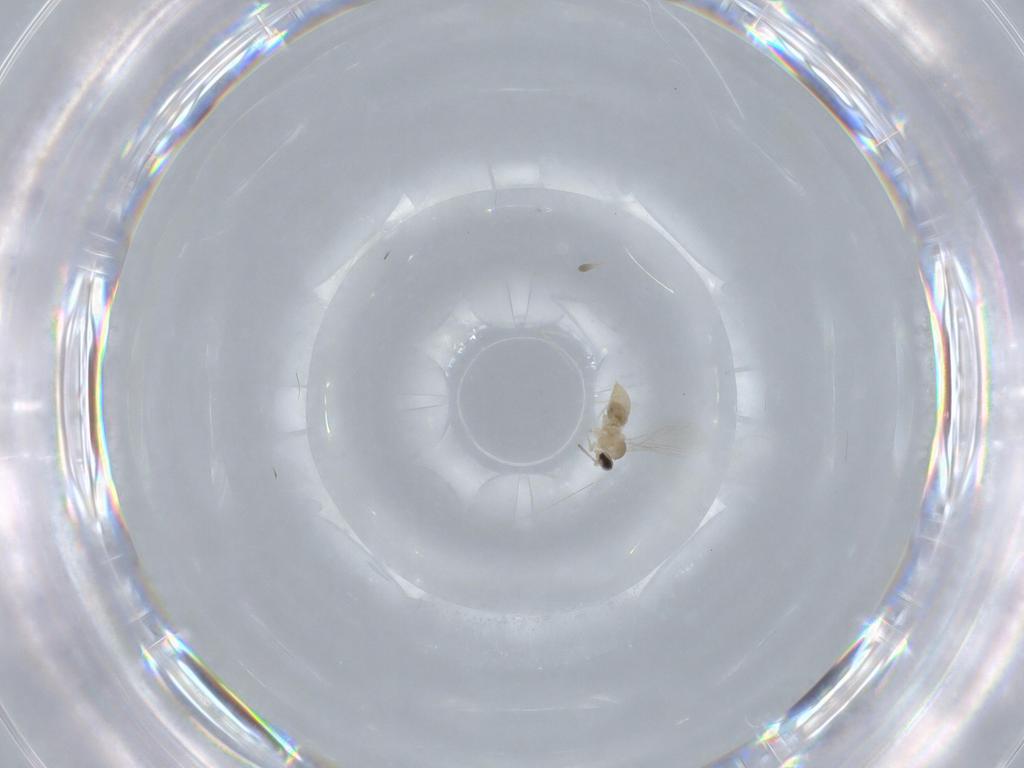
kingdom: Animalia
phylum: Arthropoda
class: Insecta
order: Diptera
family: Cecidomyiidae
